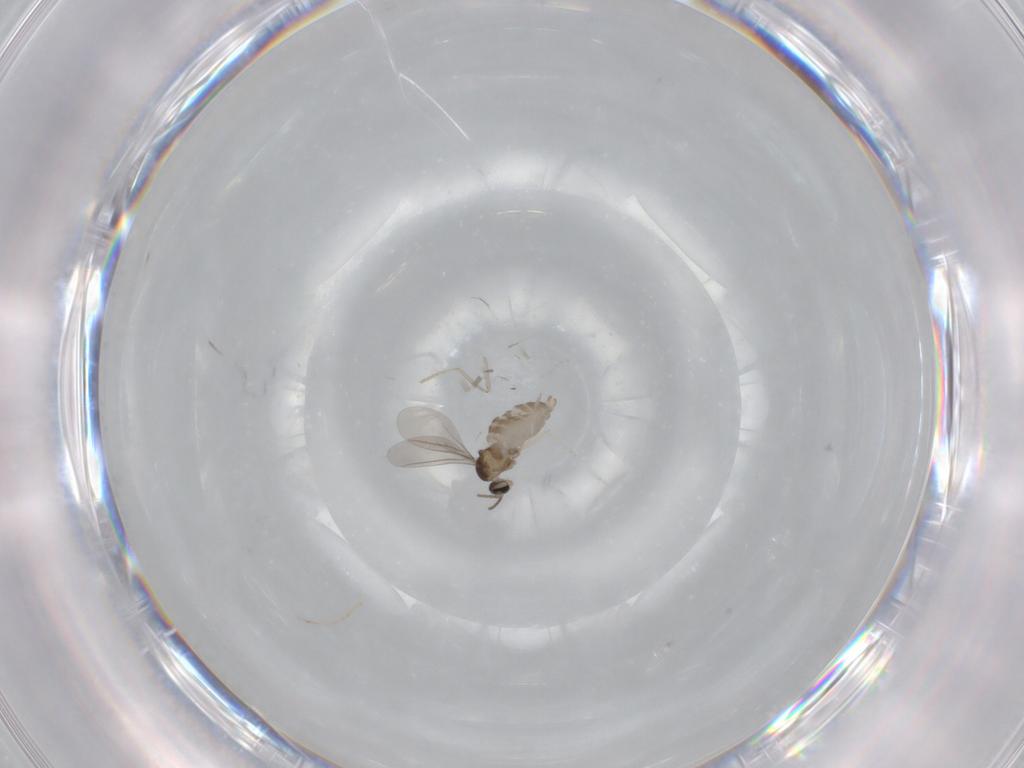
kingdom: Animalia
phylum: Arthropoda
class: Insecta
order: Diptera
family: Cecidomyiidae
